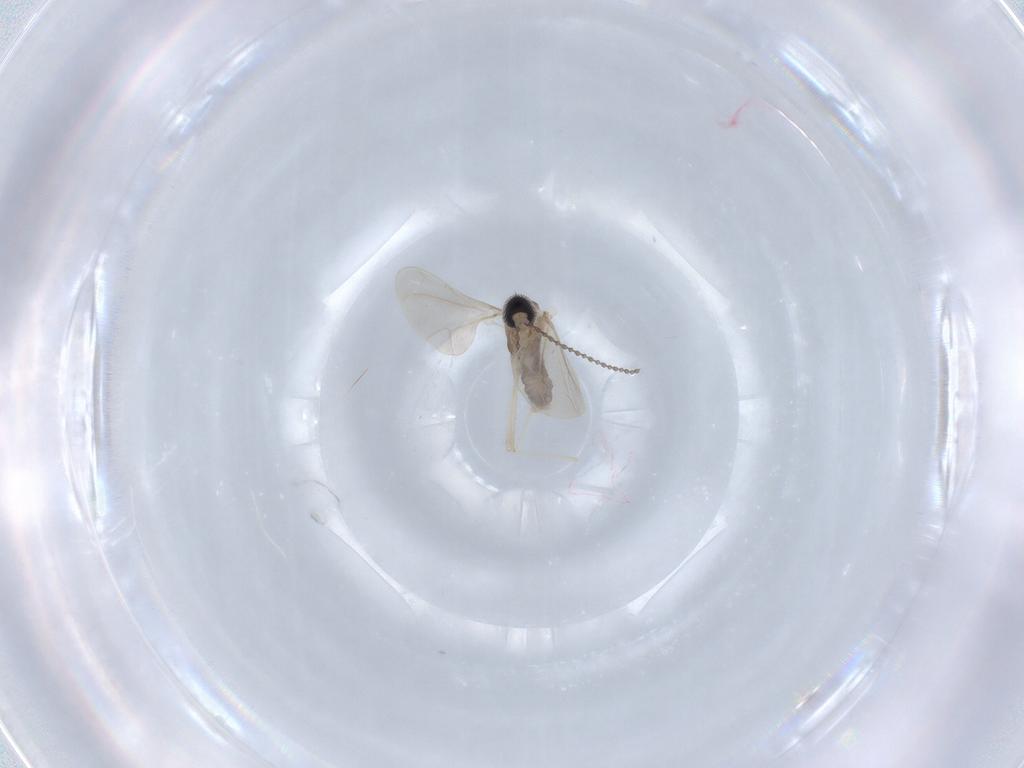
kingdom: Animalia
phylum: Arthropoda
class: Insecta
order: Diptera
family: Cecidomyiidae
